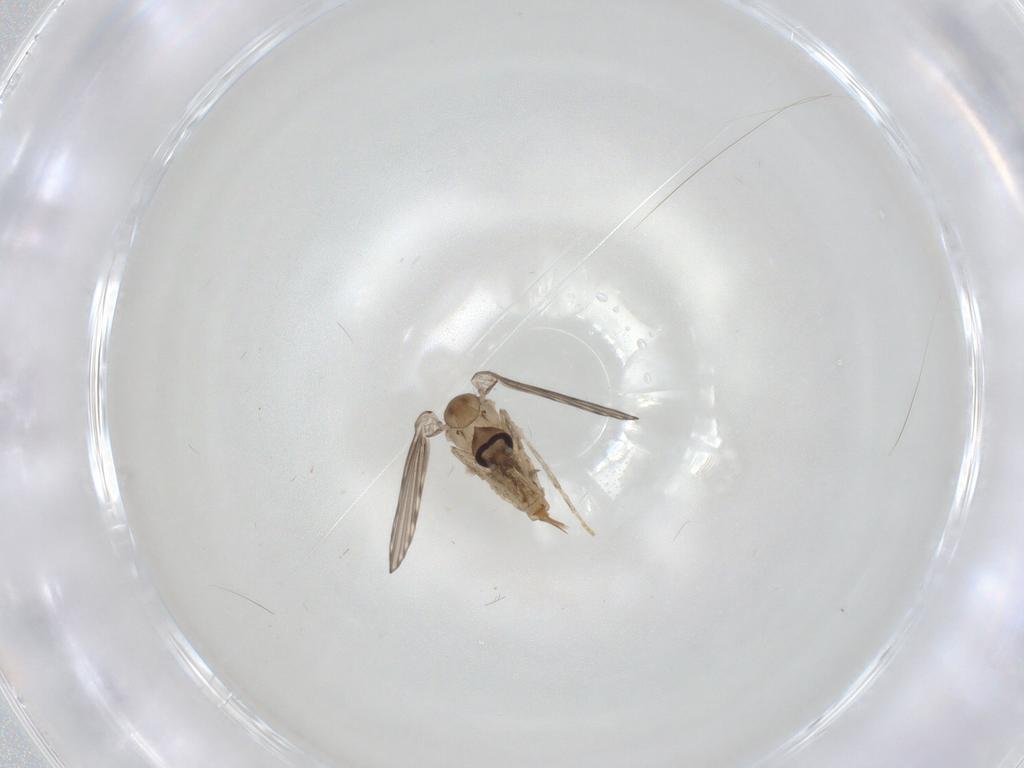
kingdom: Animalia
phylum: Arthropoda
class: Insecta
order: Diptera
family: Psychodidae
